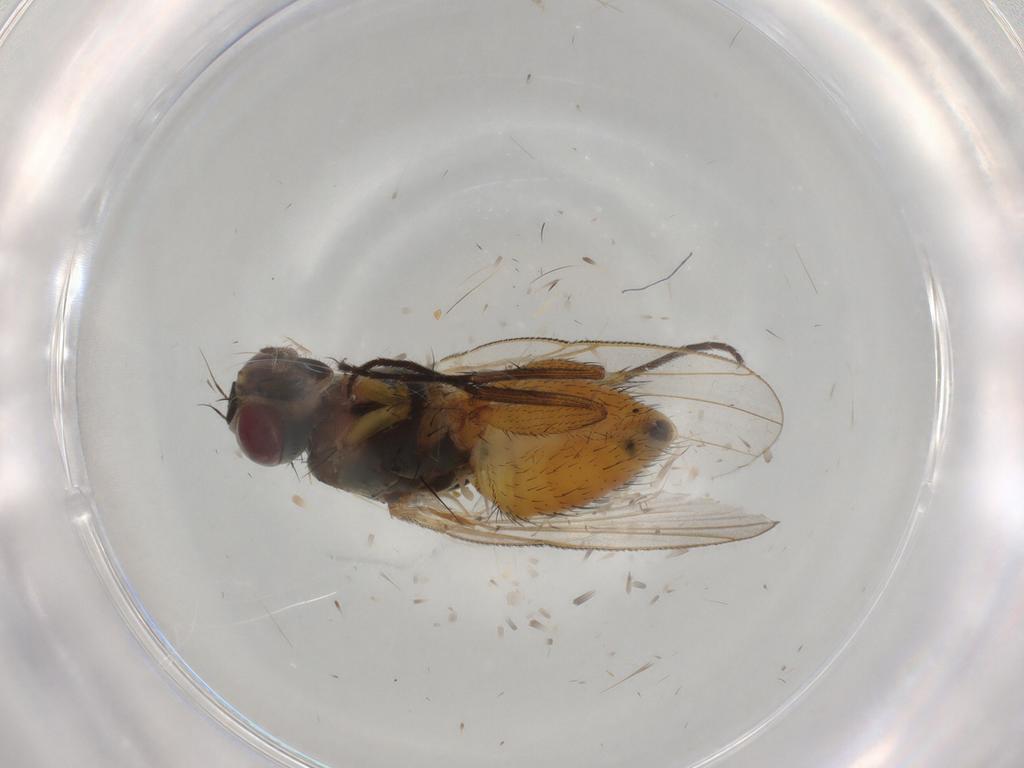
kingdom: Animalia
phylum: Arthropoda
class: Insecta
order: Diptera
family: Muscidae
